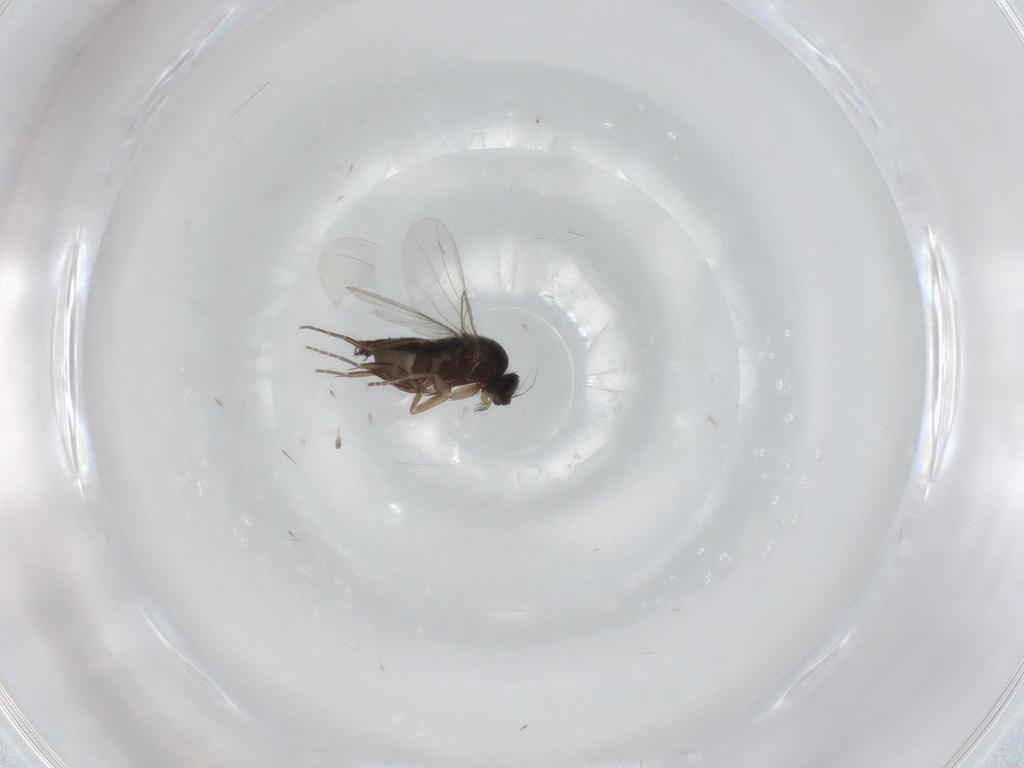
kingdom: Animalia
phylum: Arthropoda
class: Insecta
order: Diptera
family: Phoridae
